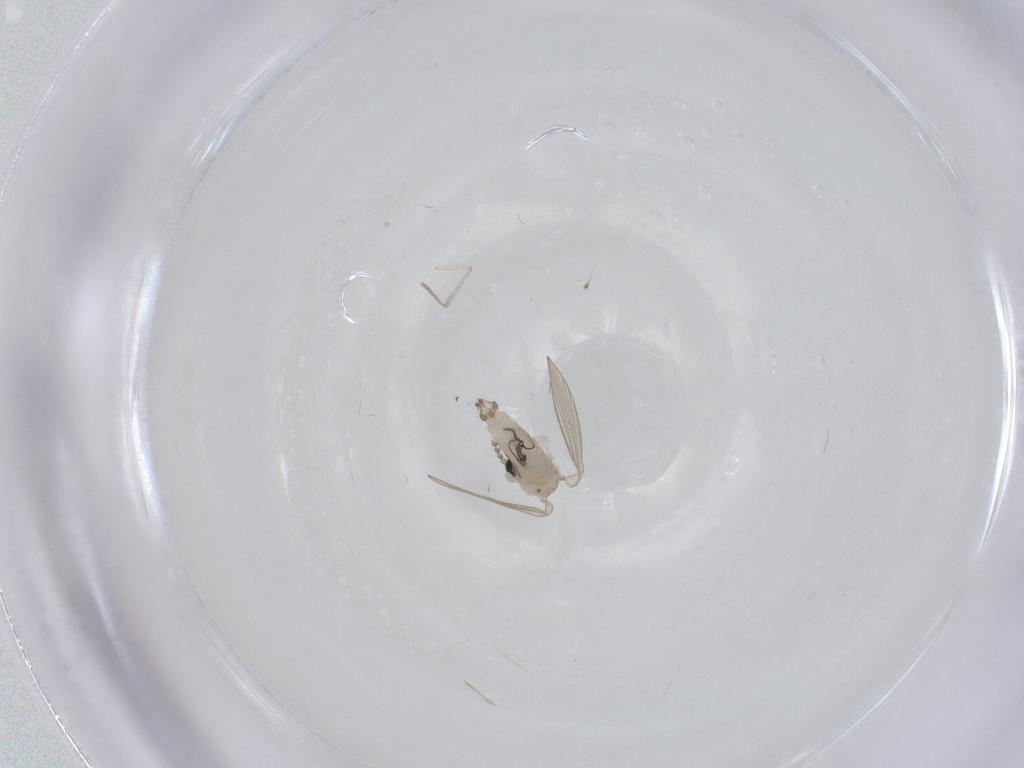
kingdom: Animalia
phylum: Arthropoda
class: Insecta
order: Diptera
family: Psychodidae
